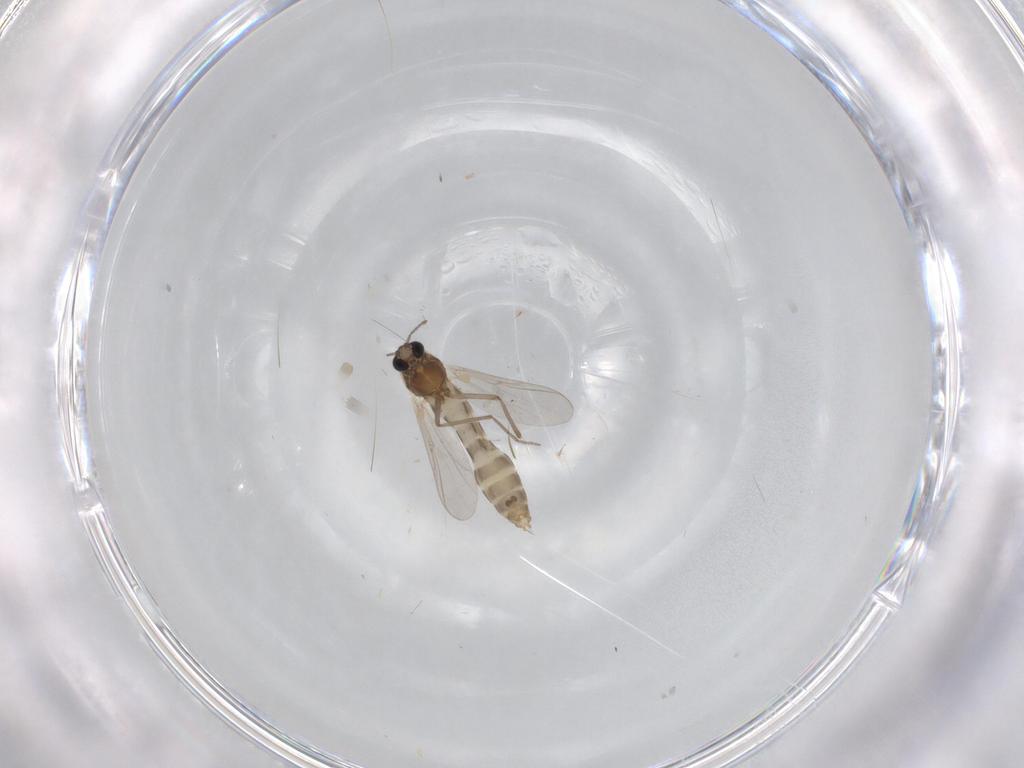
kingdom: Animalia
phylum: Arthropoda
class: Insecta
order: Diptera
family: Chironomidae
